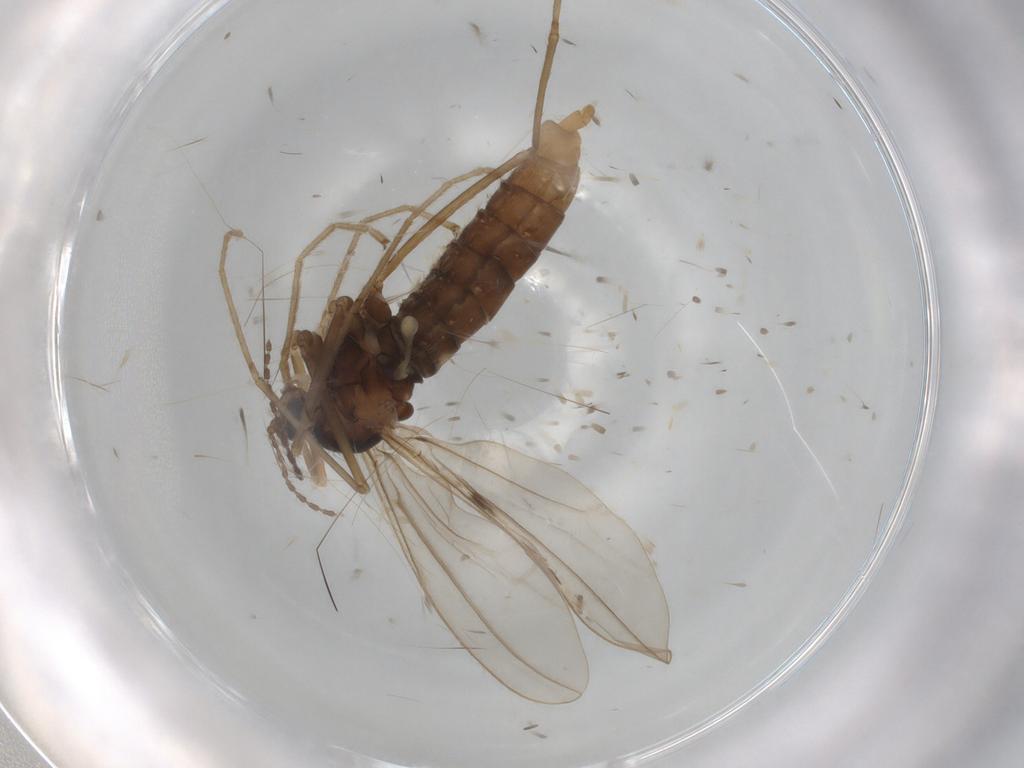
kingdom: Animalia
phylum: Arthropoda
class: Insecta
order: Diptera
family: Cecidomyiidae
